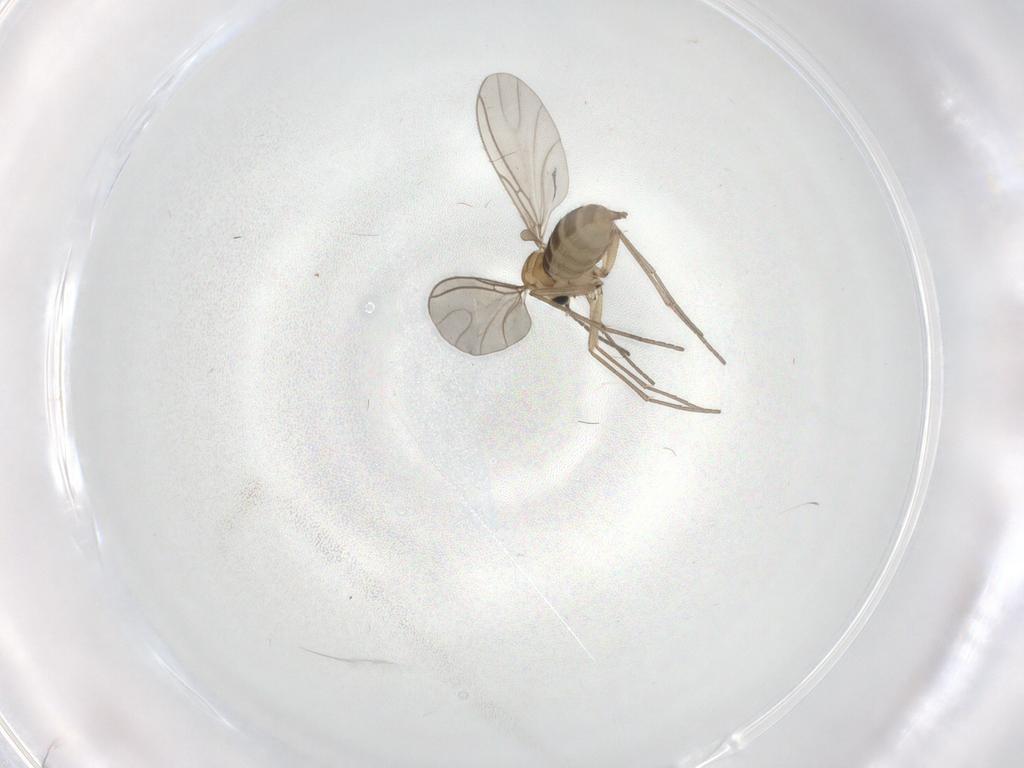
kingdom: Animalia
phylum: Arthropoda
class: Insecta
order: Diptera
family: Sciaridae
